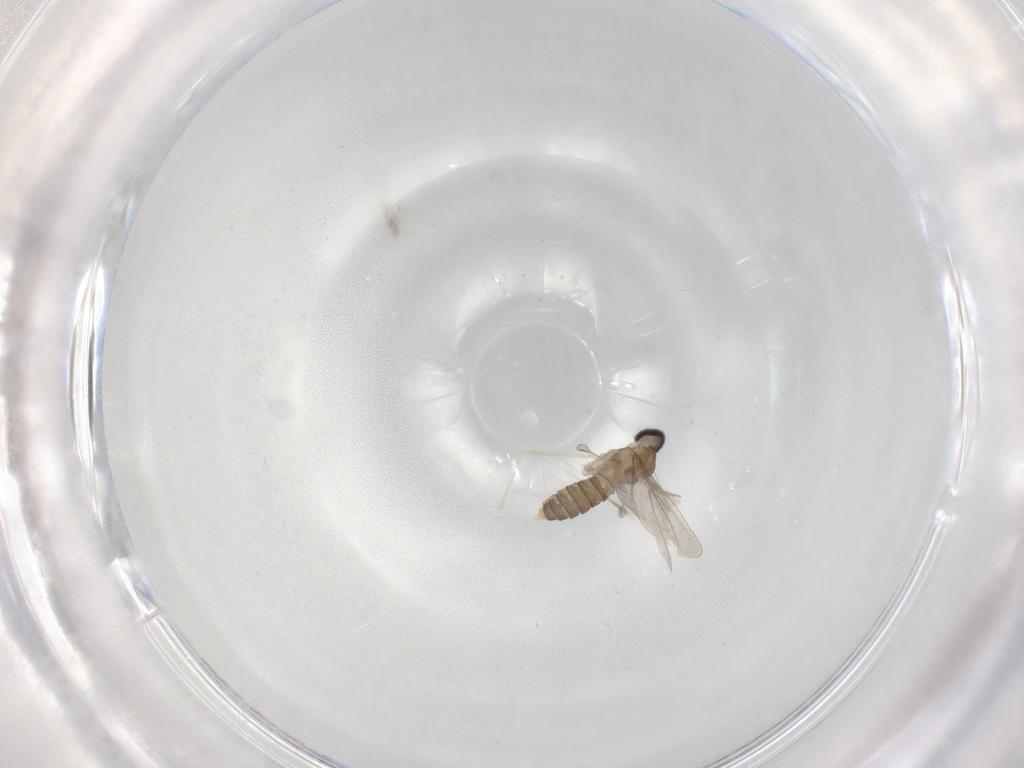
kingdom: Animalia
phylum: Arthropoda
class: Insecta
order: Diptera
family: Cecidomyiidae
